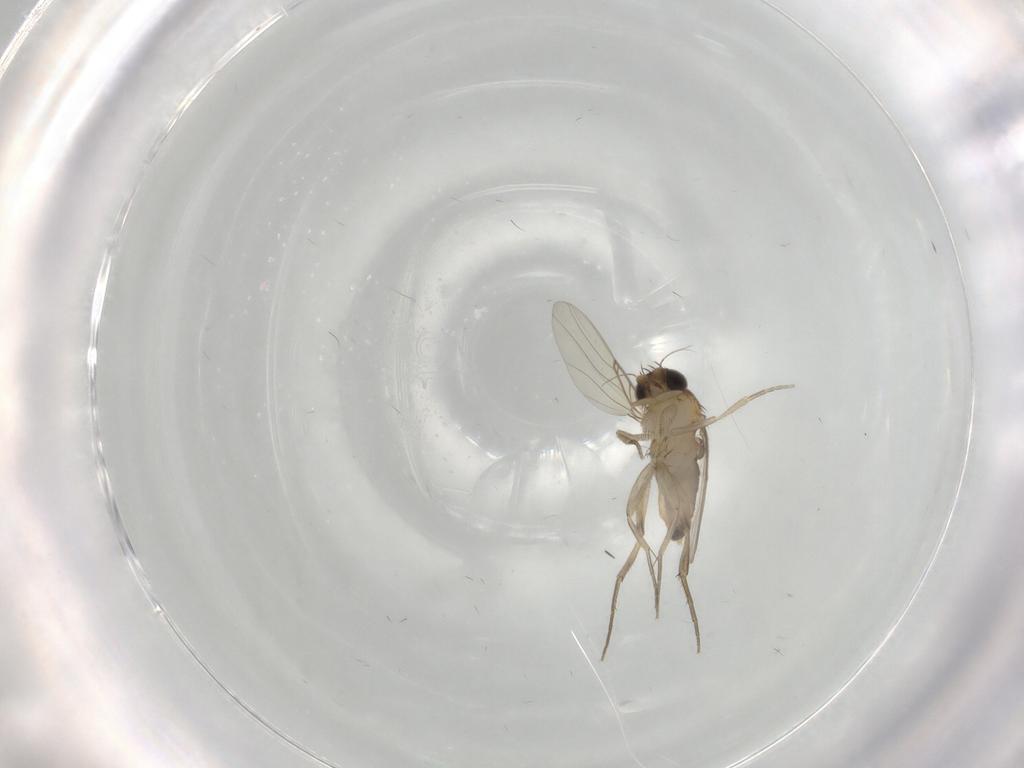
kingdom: Animalia
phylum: Arthropoda
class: Insecta
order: Diptera
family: Phoridae
